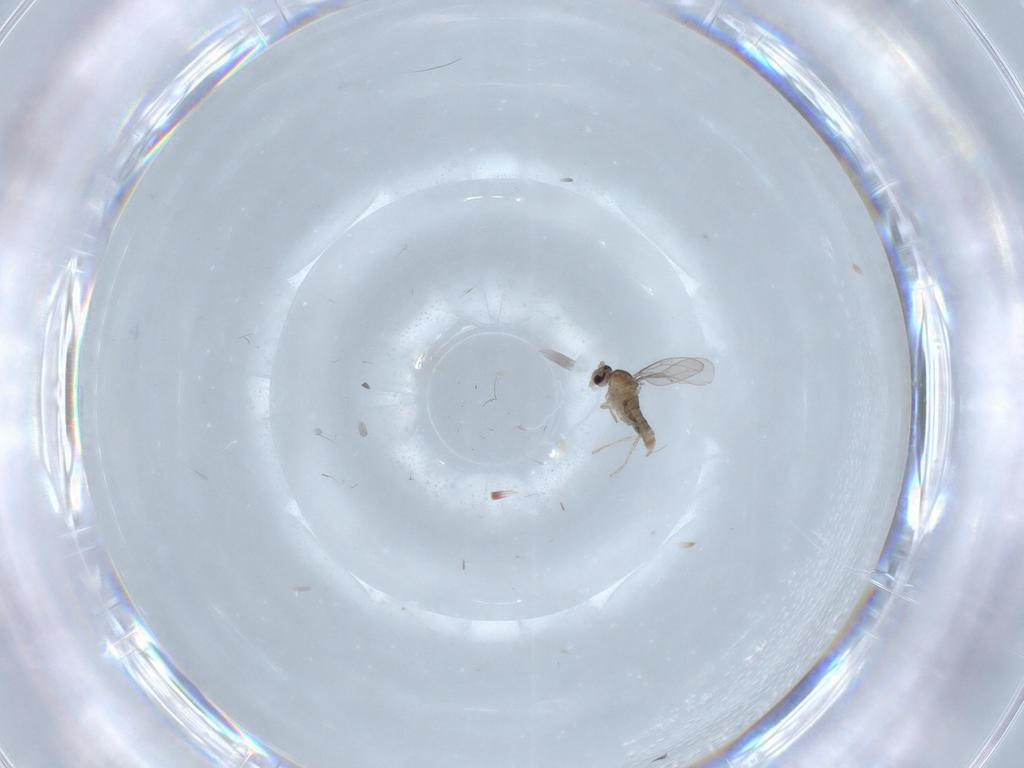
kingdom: Animalia
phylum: Arthropoda
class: Insecta
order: Diptera
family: Cecidomyiidae
